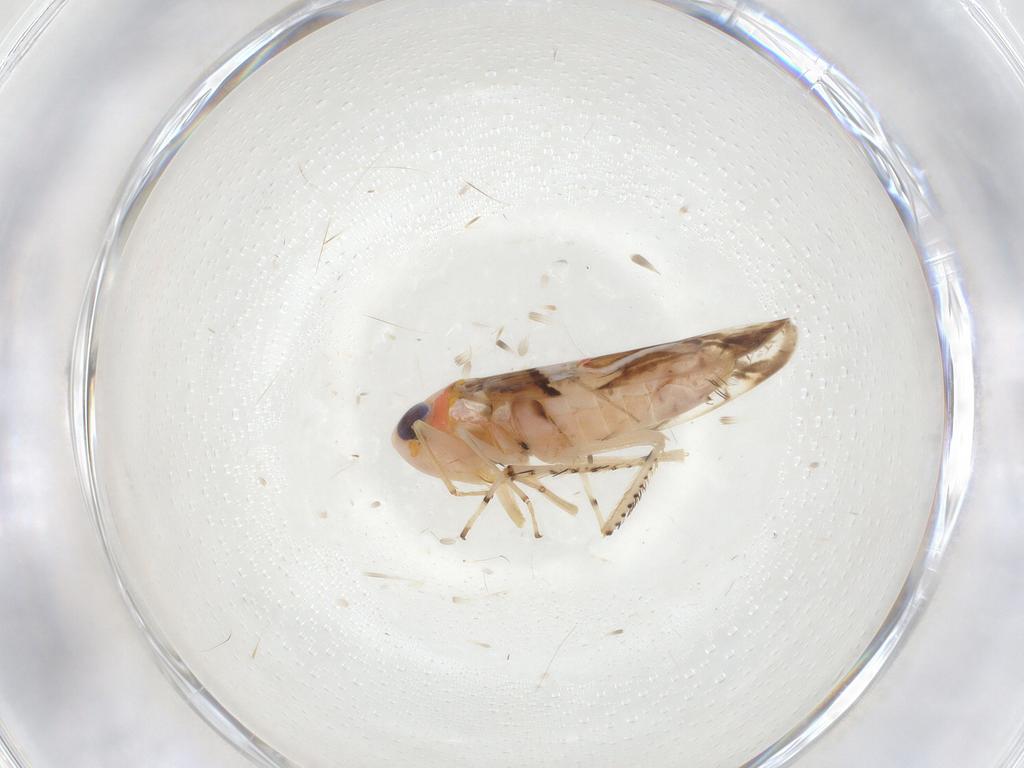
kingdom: Animalia
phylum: Arthropoda
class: Insecta
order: Hemiptera
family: Cicadellidae
